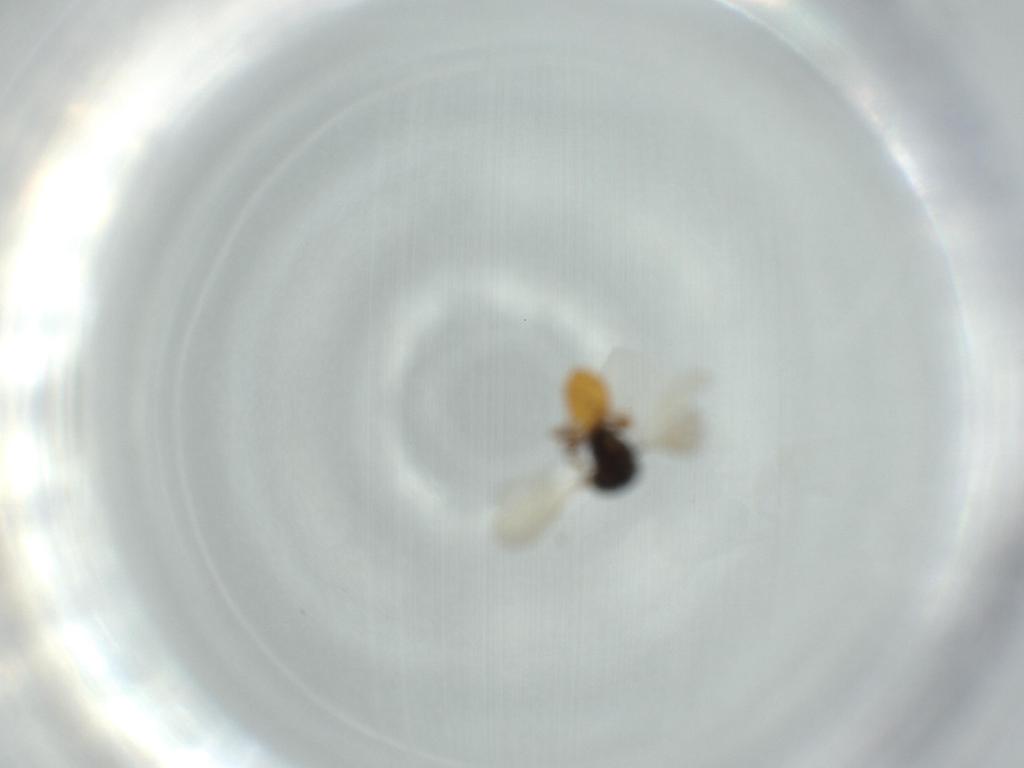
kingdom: Animalia
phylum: Arthropoda
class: Insecta
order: Hymenoptera
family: Scelionidae
